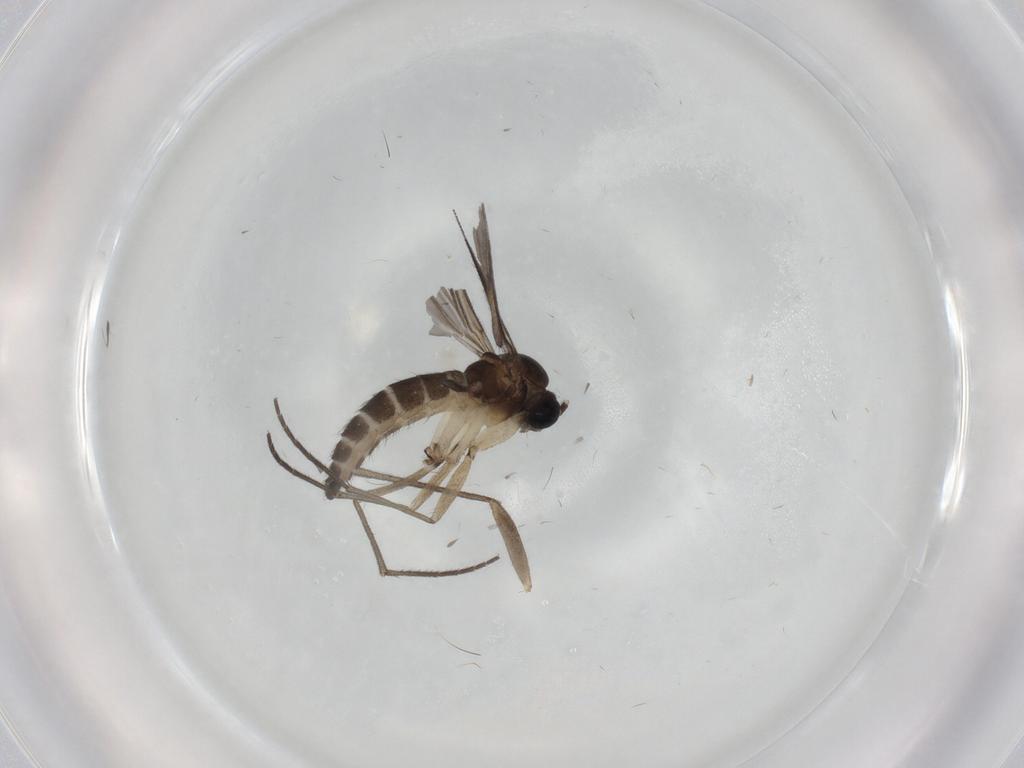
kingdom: Animalia
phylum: Arthropoda
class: Insecta
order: Diptera
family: Sciaridae
